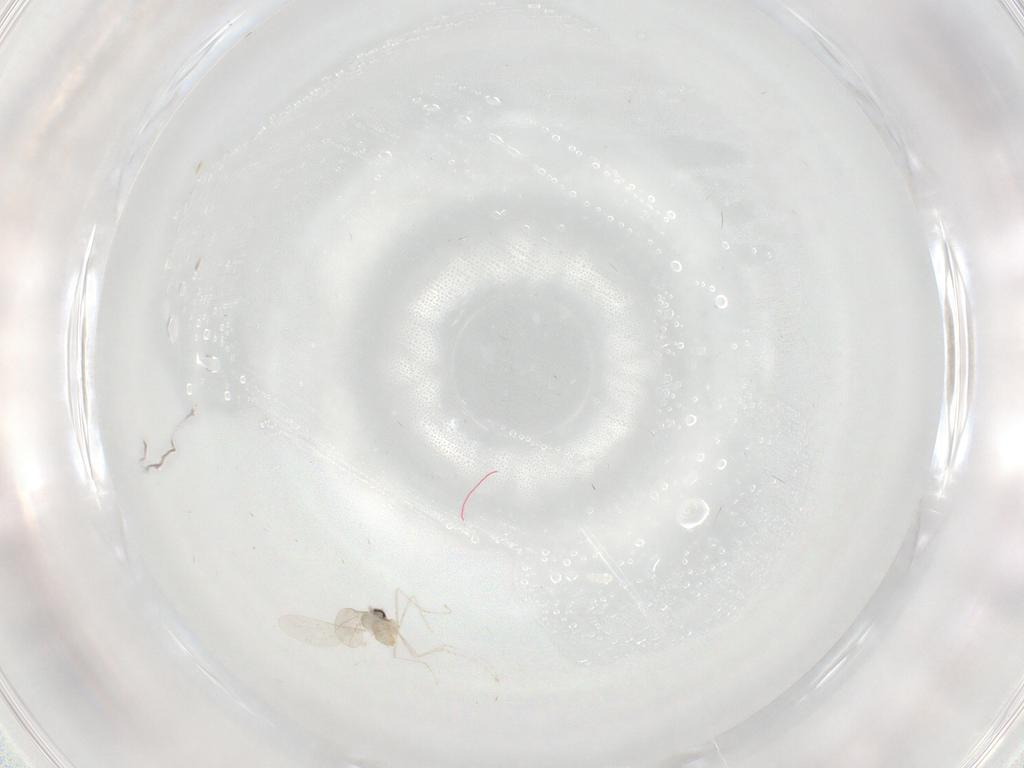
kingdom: Animalia
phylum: Arthropoda
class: Insecta
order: Diptera
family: Cecidomyiidae
